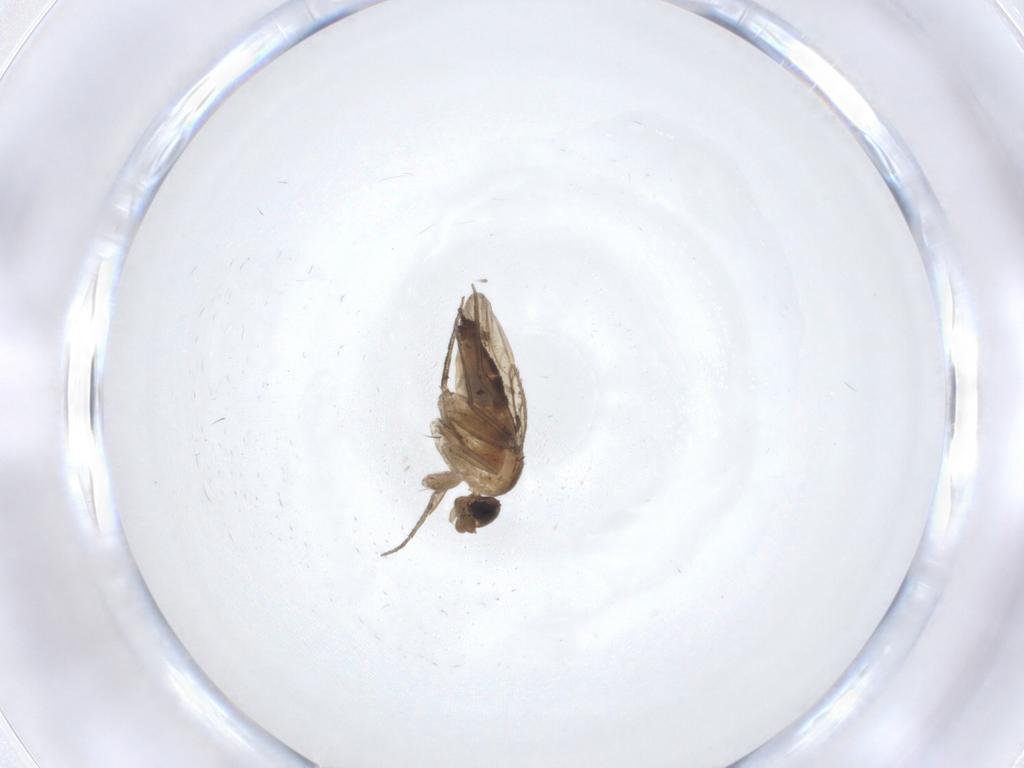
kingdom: Animalia
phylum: Arthropoda
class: Insecta
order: Diptera
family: Phoridae
